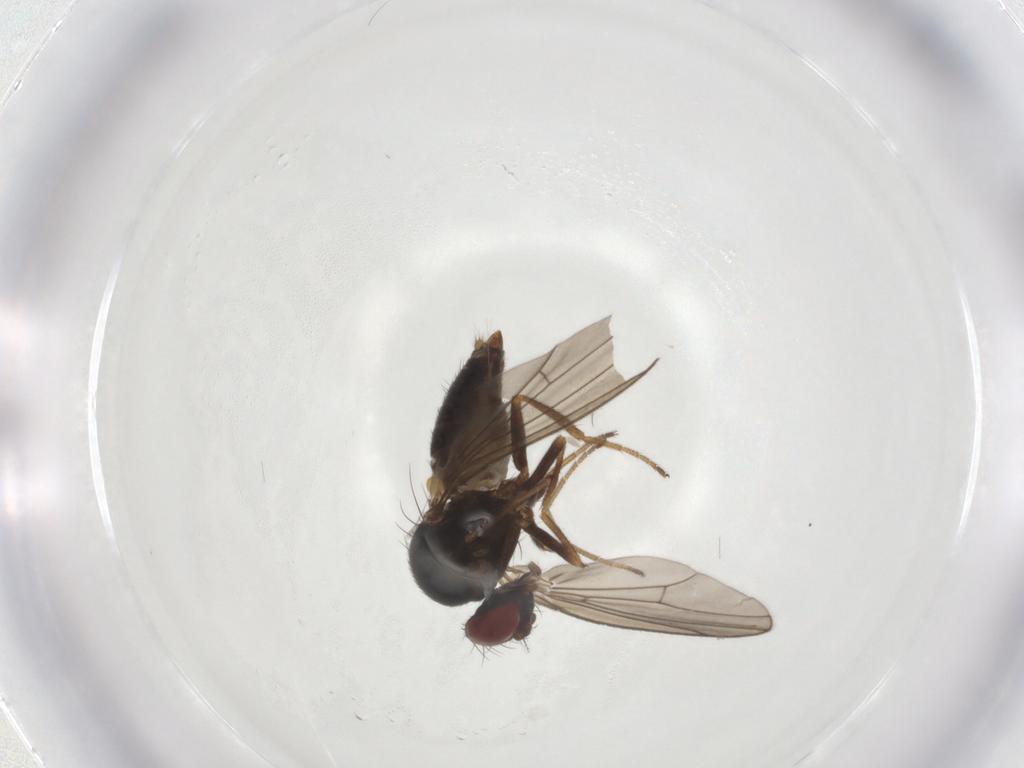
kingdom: Animalia
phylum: Arthropoda
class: Insecta
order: Diptera
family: Drosophilidae
